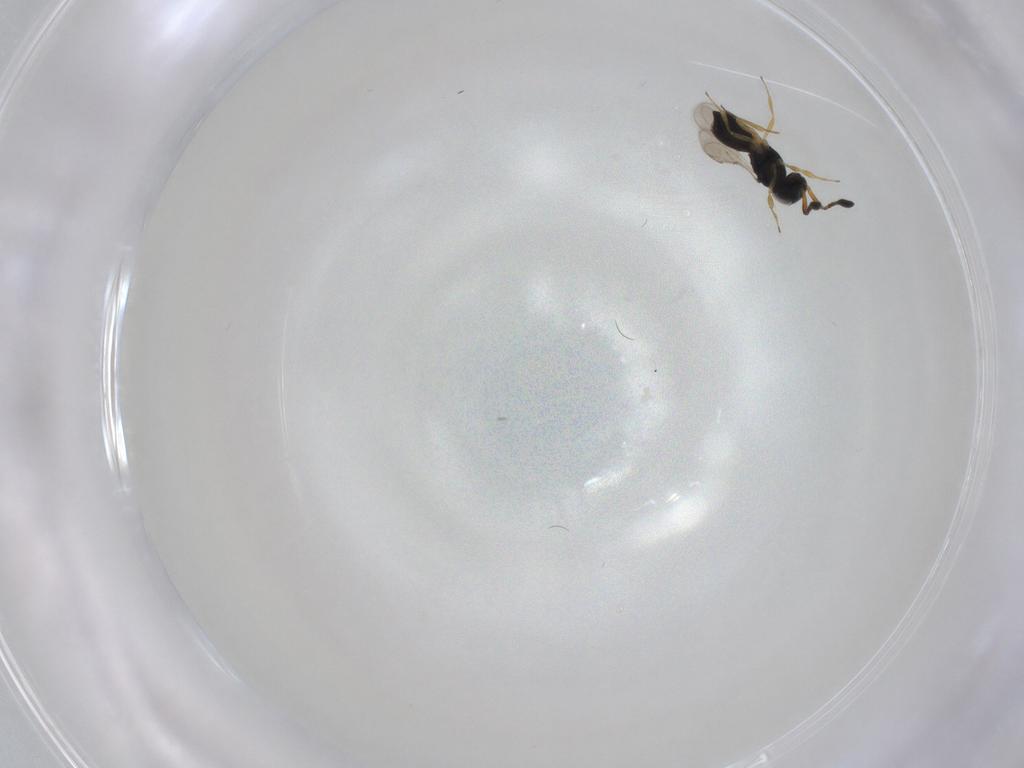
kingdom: Animalia
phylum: Arthropoda
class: Insecta
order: Hymenoptera
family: Scelionidae
